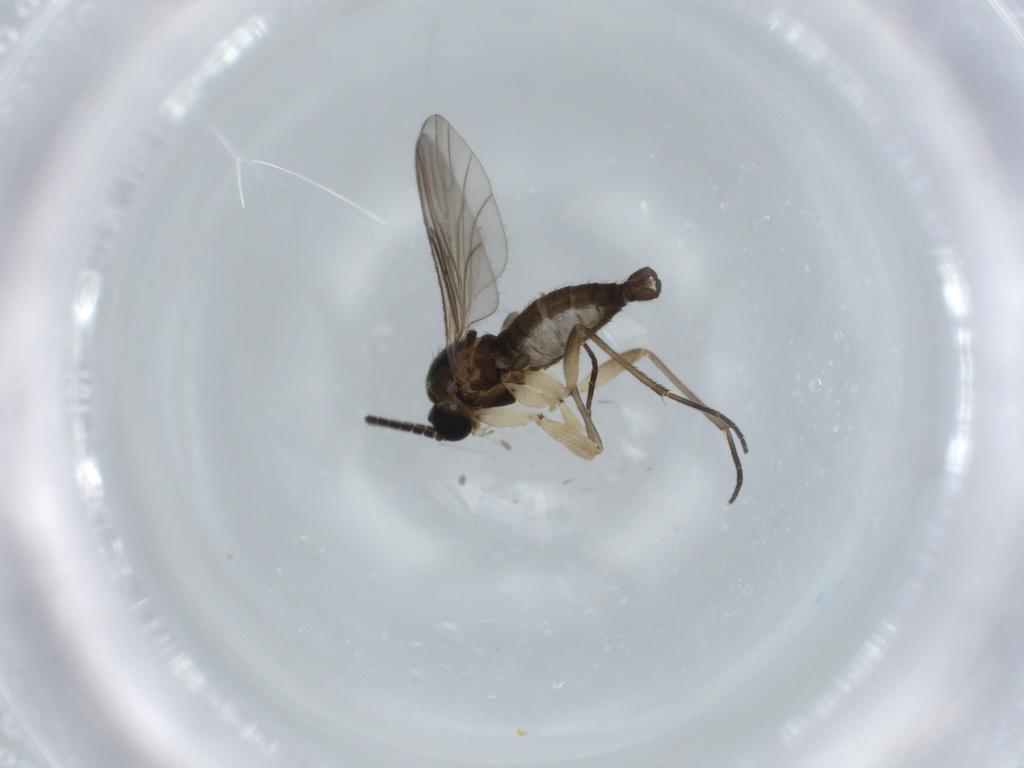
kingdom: Animalia
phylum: Arthropoda
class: Insecta
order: Diptera
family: Sciaridae
